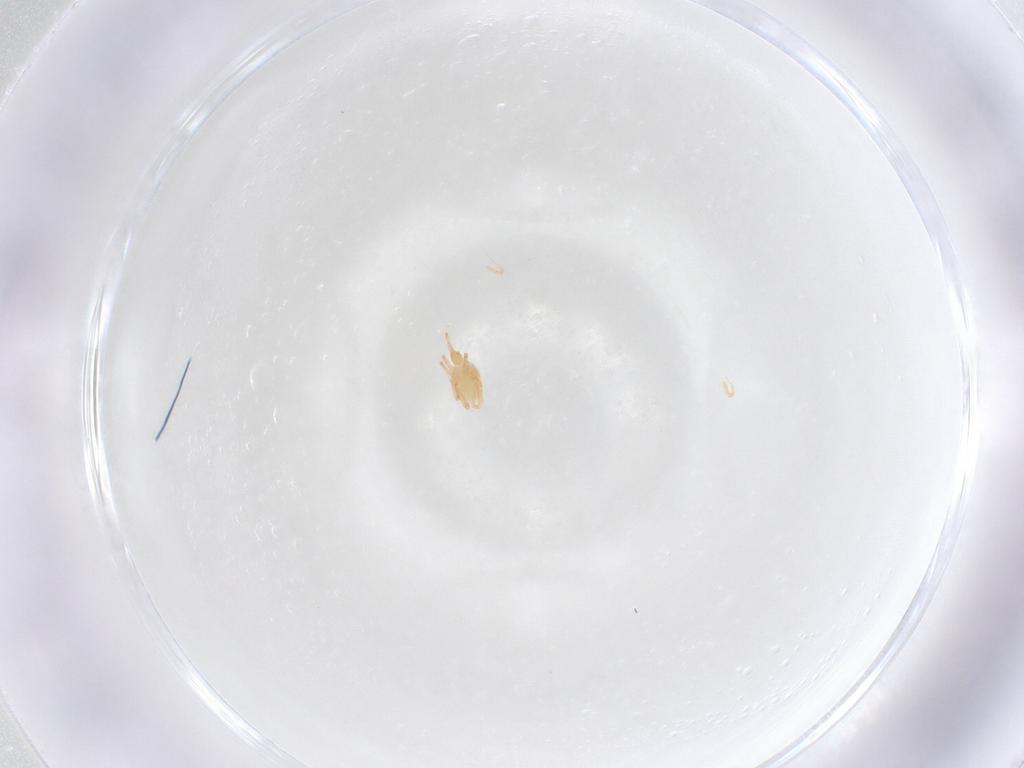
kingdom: Animalia
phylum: Arthropoda
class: Arachnida
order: Trombidiformes
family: Cunaxidae
